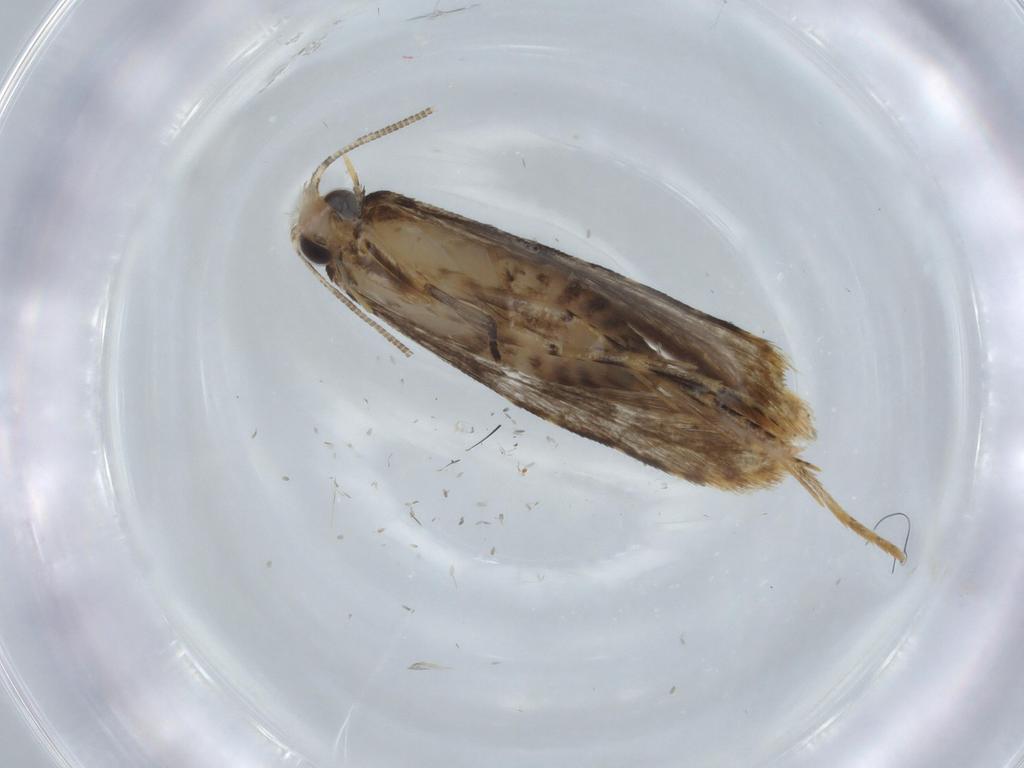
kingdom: Animalia
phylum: Arthropoda
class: Insecta
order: Lepidoptera
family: Tineidae
